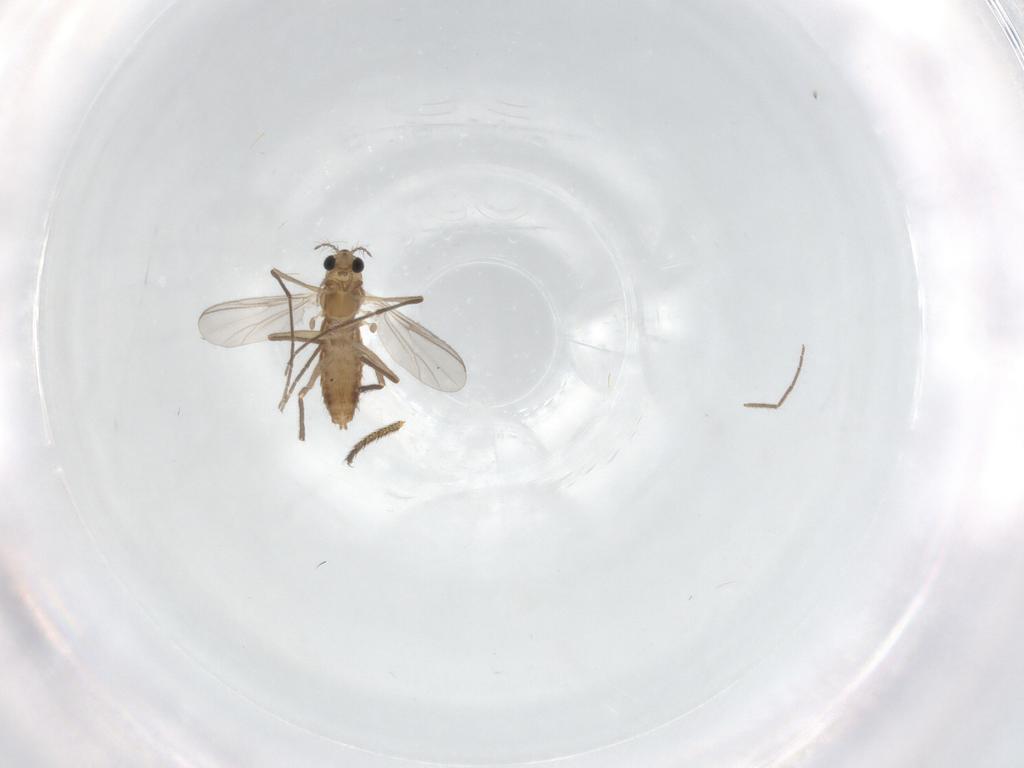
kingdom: Animalia
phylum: Arthropoda
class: Insecta
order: Diptera
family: Chironomidae
